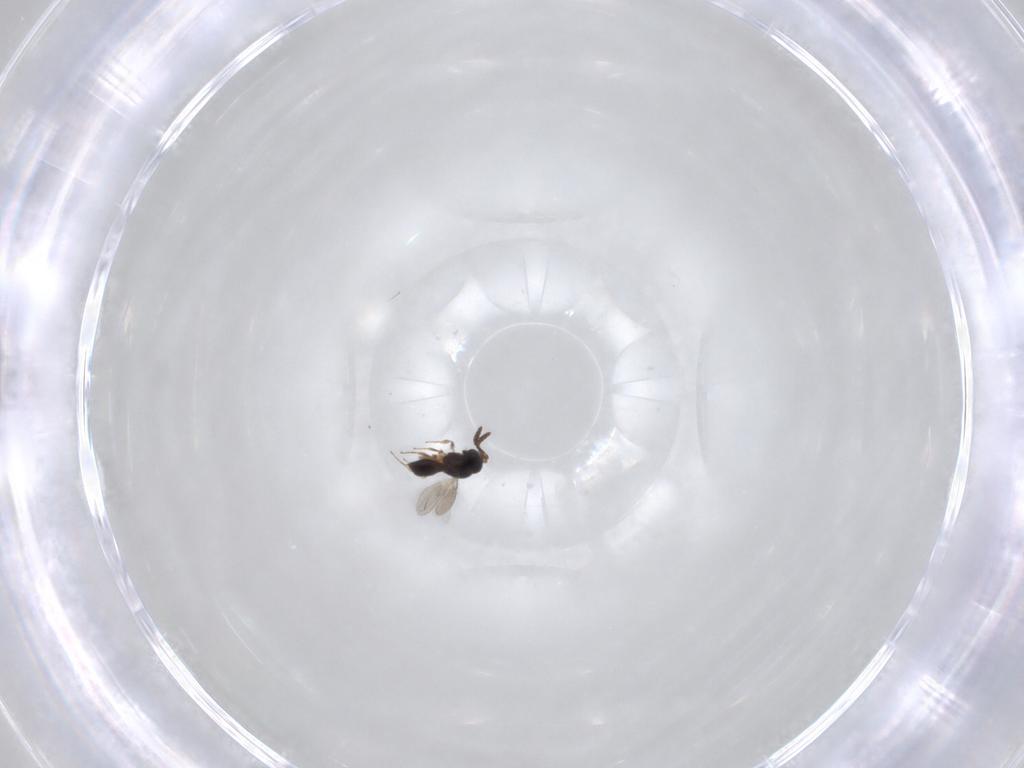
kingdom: Animalia
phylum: Arthropoda
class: Insecta
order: Hymenoptera
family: Scelionidae
